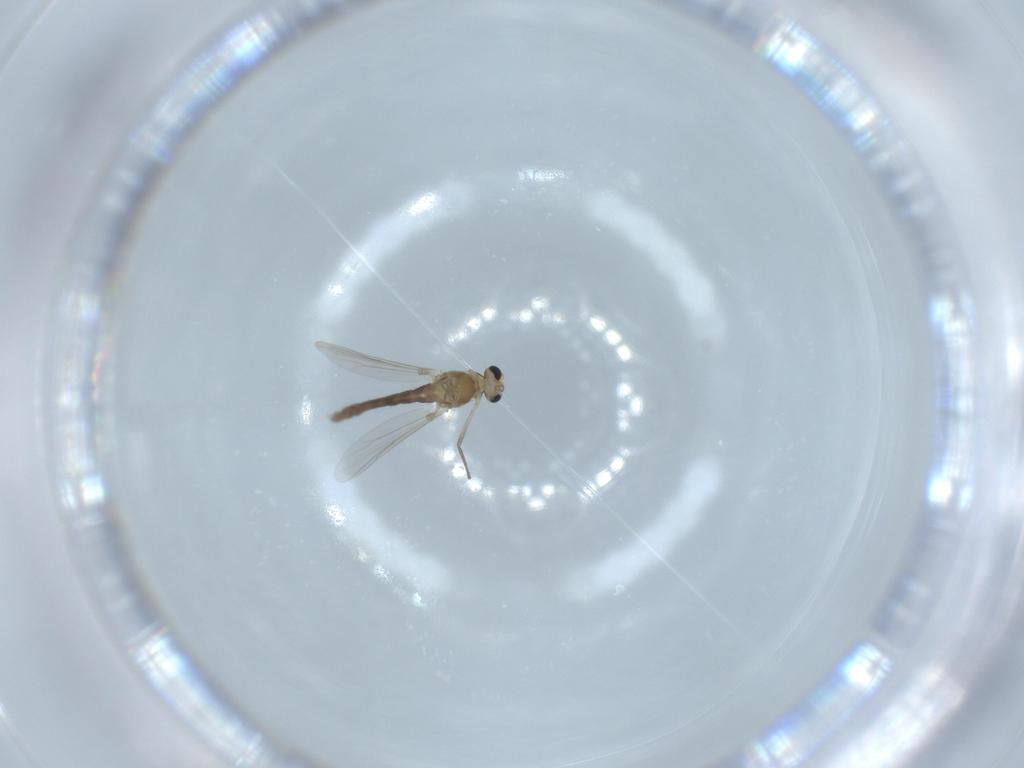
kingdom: Animalia
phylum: Arthropoda
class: Insecta
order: Diptera
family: Chironomidae
